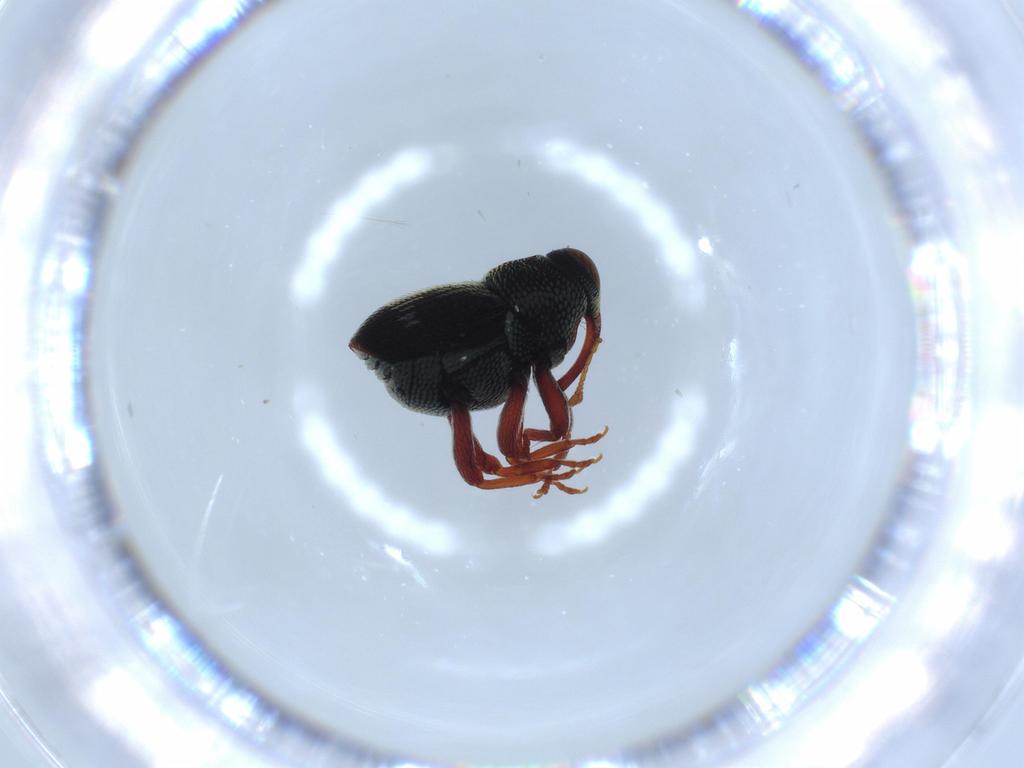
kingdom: Animalia
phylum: Arthropoda
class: Insecta
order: Coleoptera
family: Curculionidae
